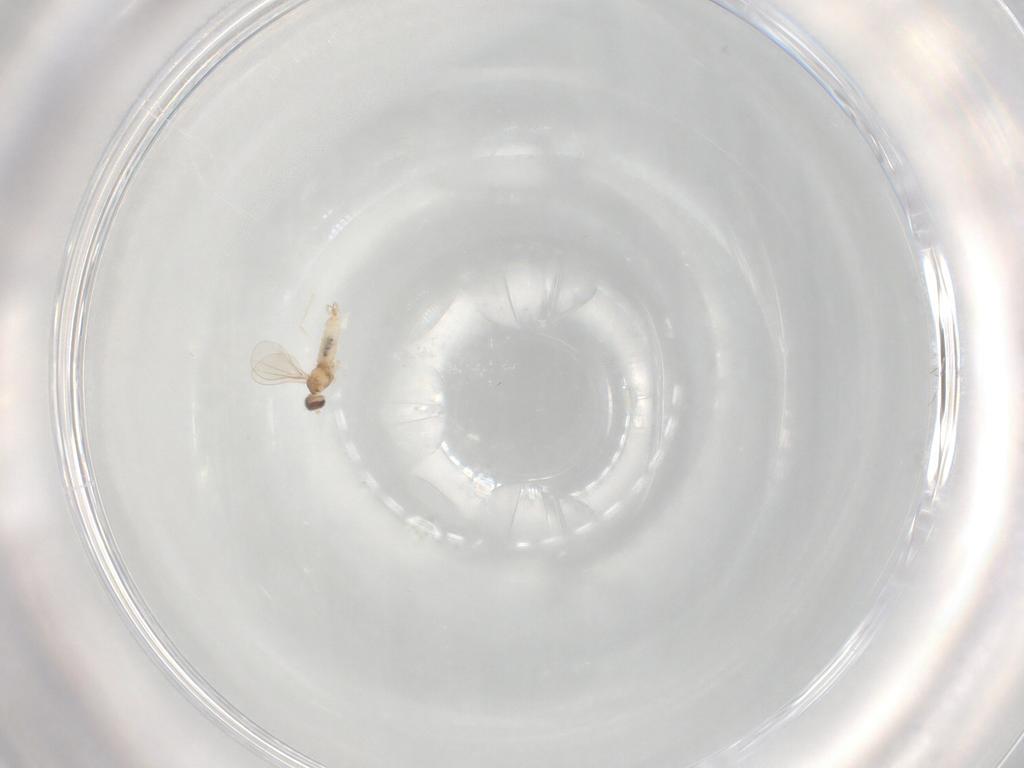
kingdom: Animalia
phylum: Arthropoda
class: Insecta
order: Diptera
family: Cecidomyiidae
